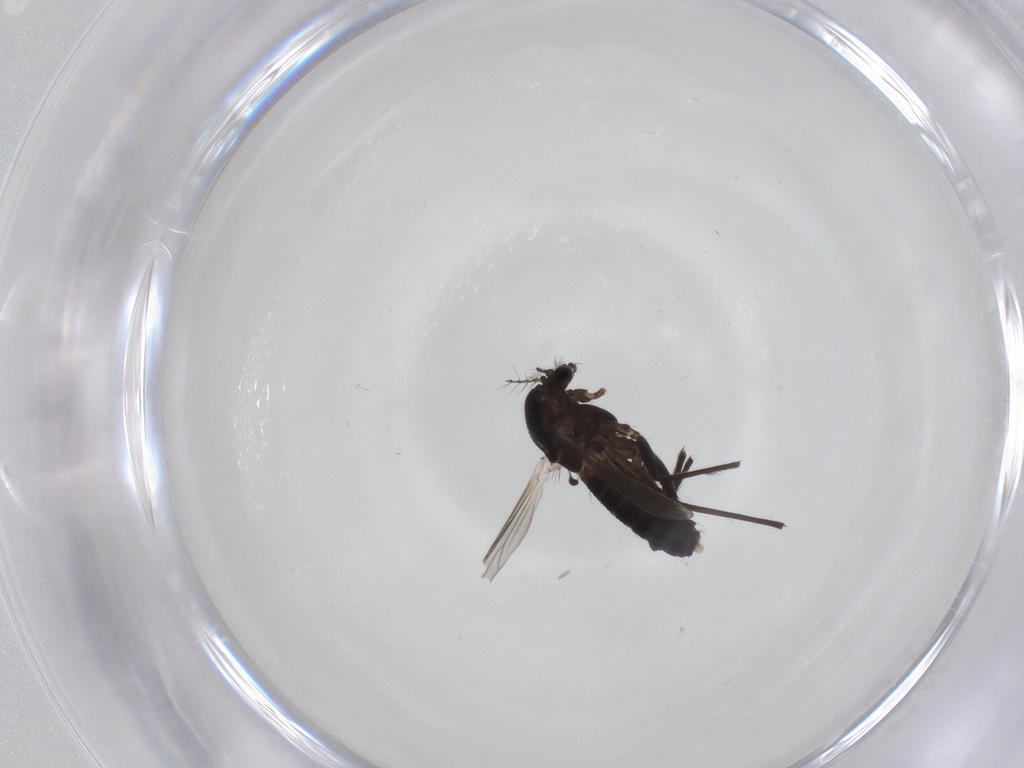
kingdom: Animalia
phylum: Arthropoda
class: Insecta
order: Diptera
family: Chironomidae
